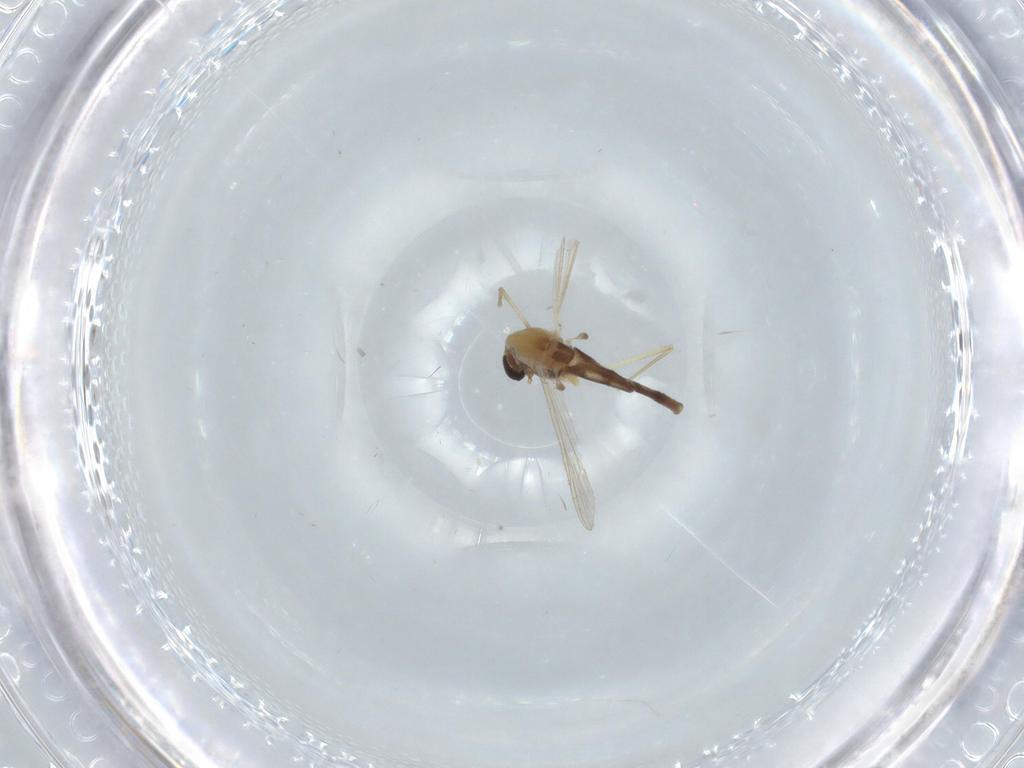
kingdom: Animalia
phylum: Arthropoda
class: Insecta
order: Diptera
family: Chironomidae
